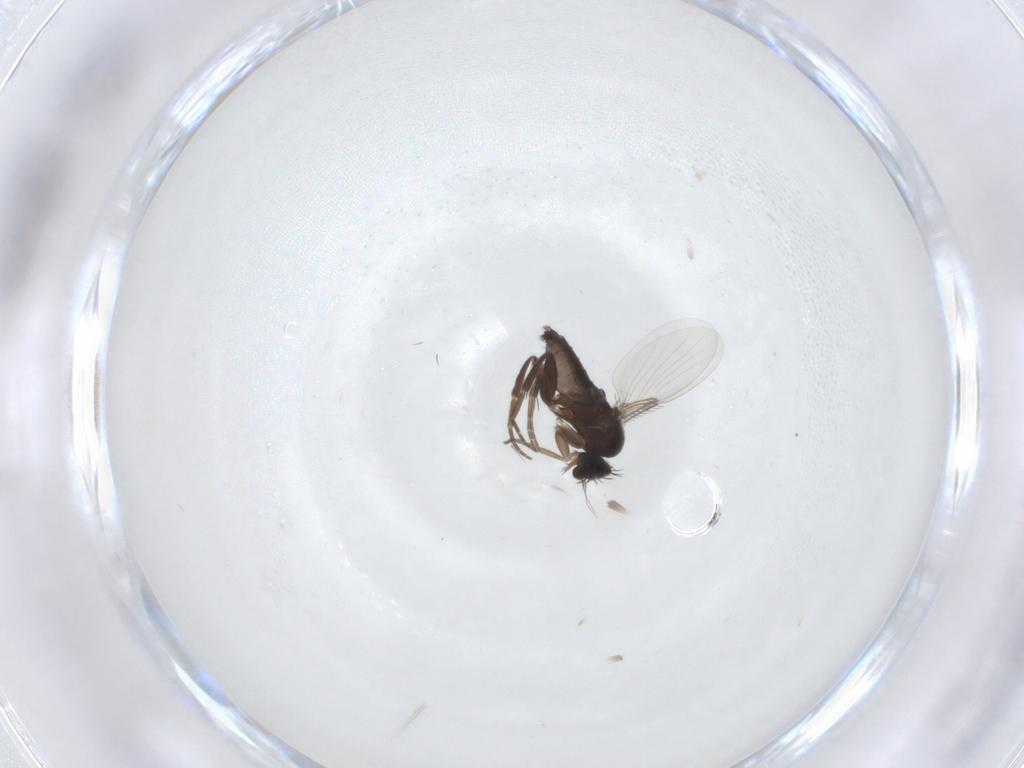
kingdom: Animalia
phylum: Arthropoda
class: Insecta
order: Diptera
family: Phoridae
